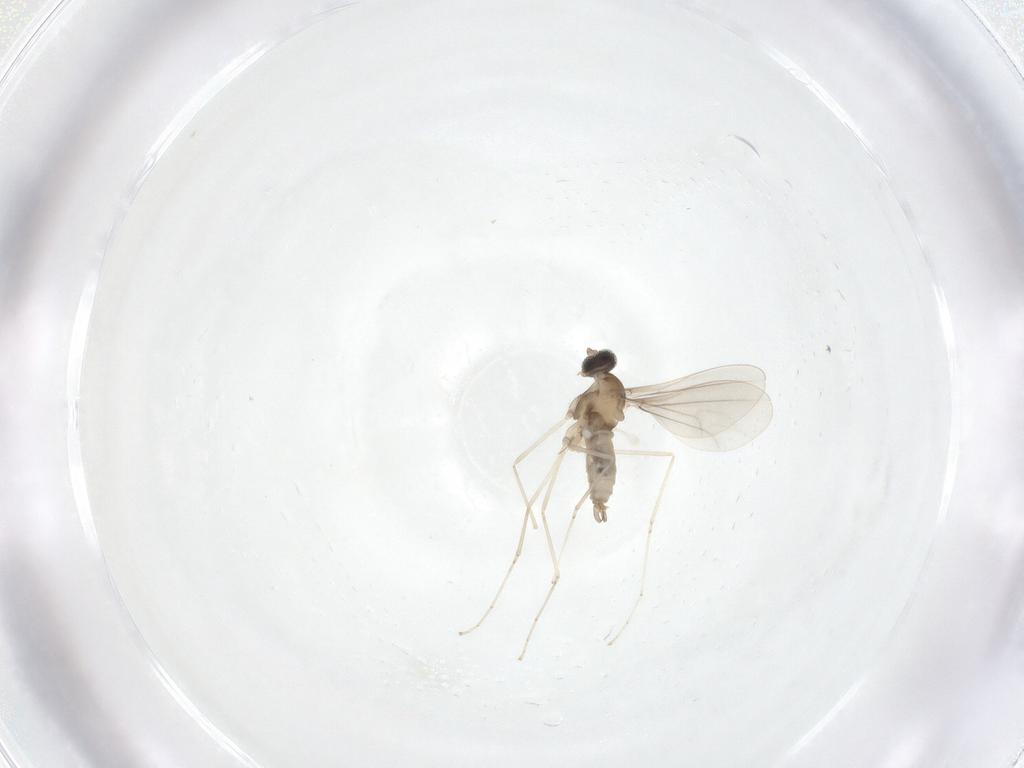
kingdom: Animalia
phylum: Arthropoda
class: Insecta
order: Diptera
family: Cecidomyiidae
